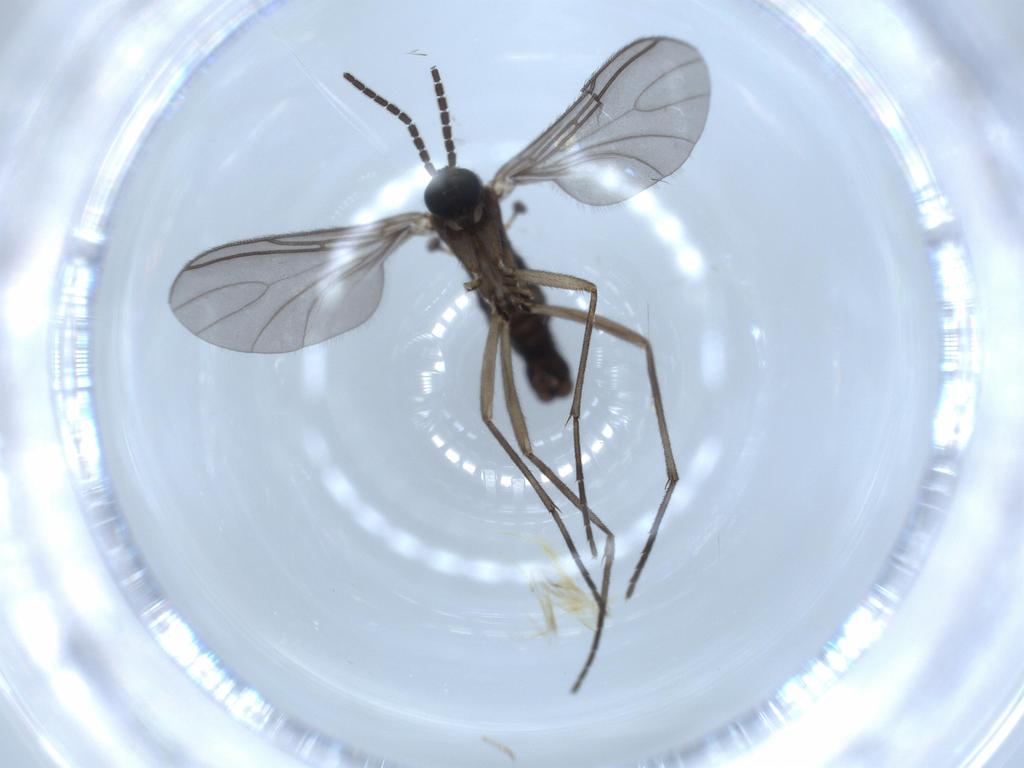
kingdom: Animalia
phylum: Arthropoda
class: Insecta
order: Diptera
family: Sciaridae
